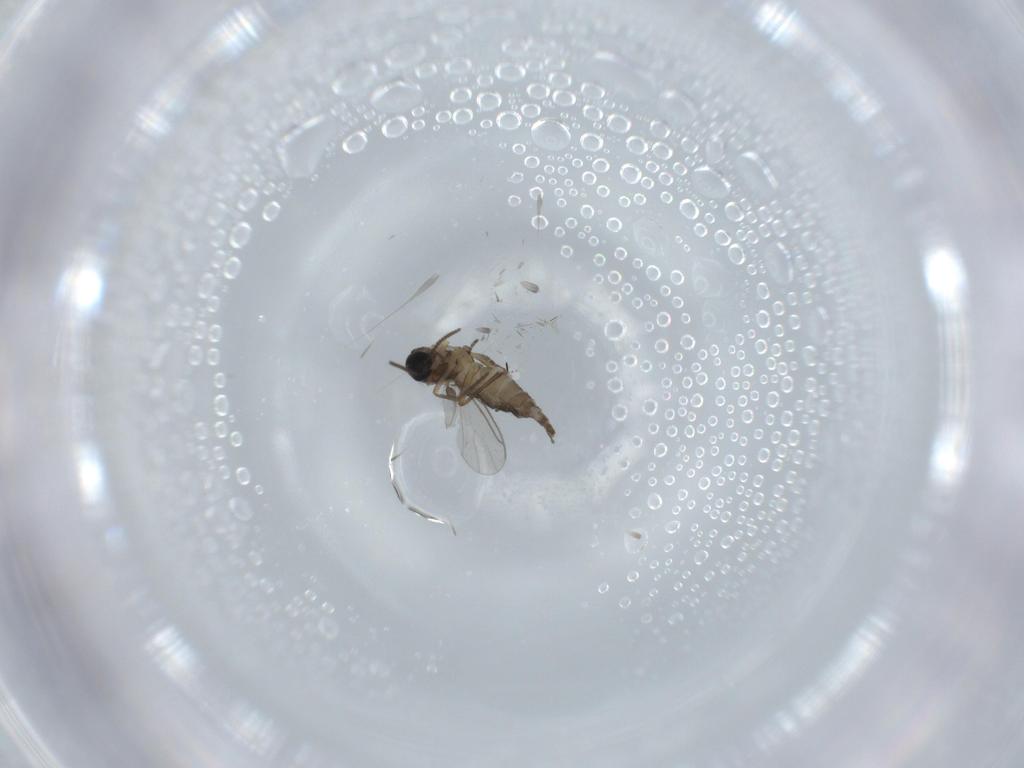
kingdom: Animalia
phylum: Arthropoda
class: Insecta
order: Diptera
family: Sciaridae
